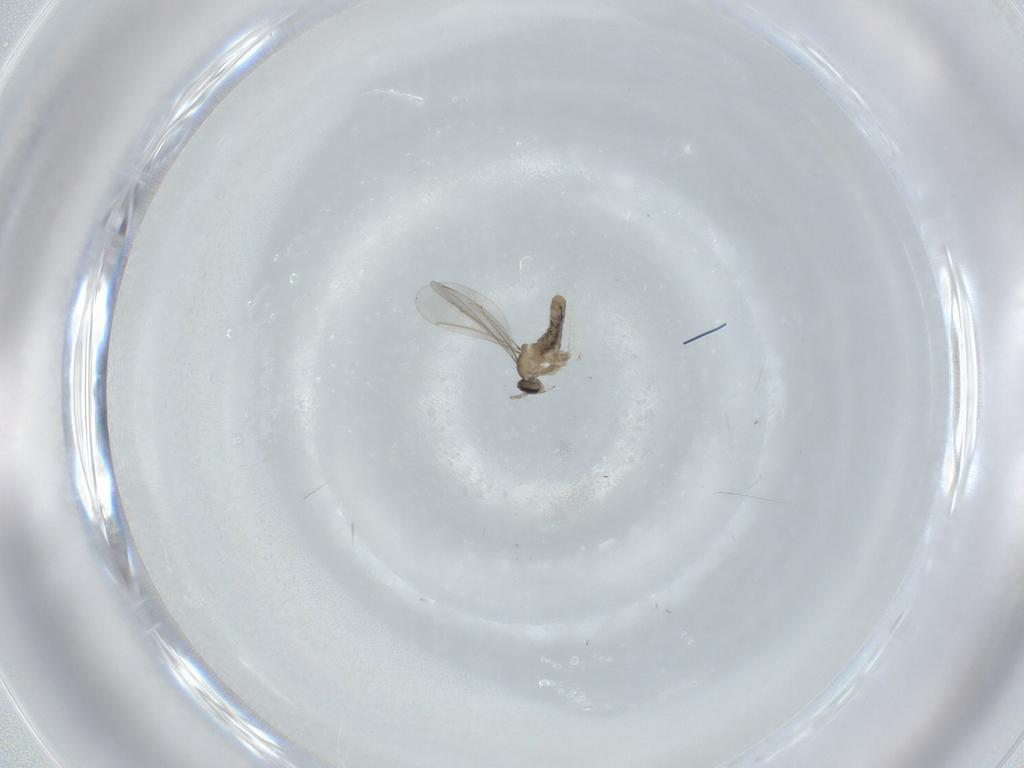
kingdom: Animalia
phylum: Arthropoda
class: Insecta
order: Diptera
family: Cecidomyiidae
